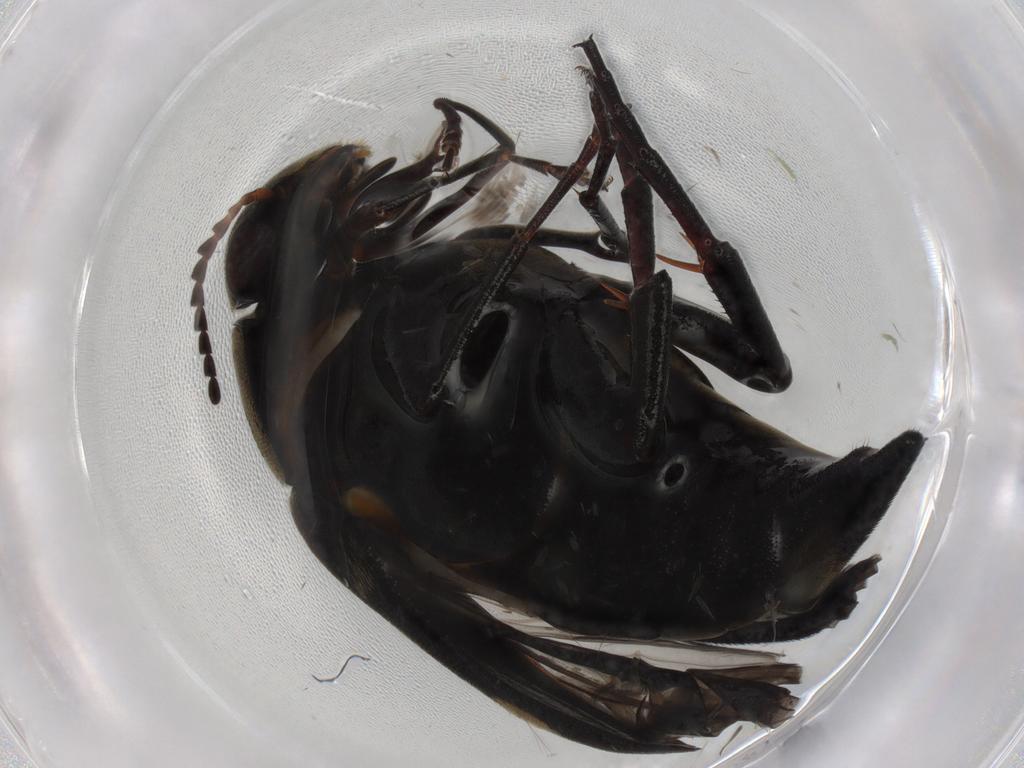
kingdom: Animalia
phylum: Arthropoda
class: Insecta
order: Coleoptera
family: Mordellidae
